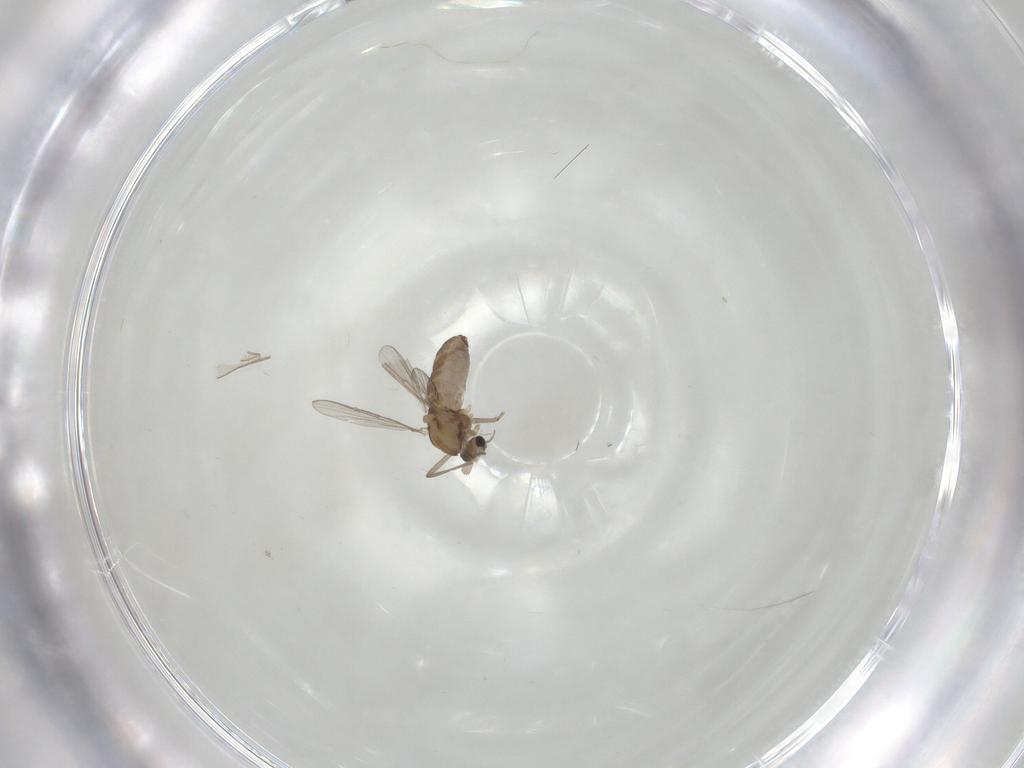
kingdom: Animalia
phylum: Arthropoda
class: Insecta
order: Diptera
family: Chironomidae
